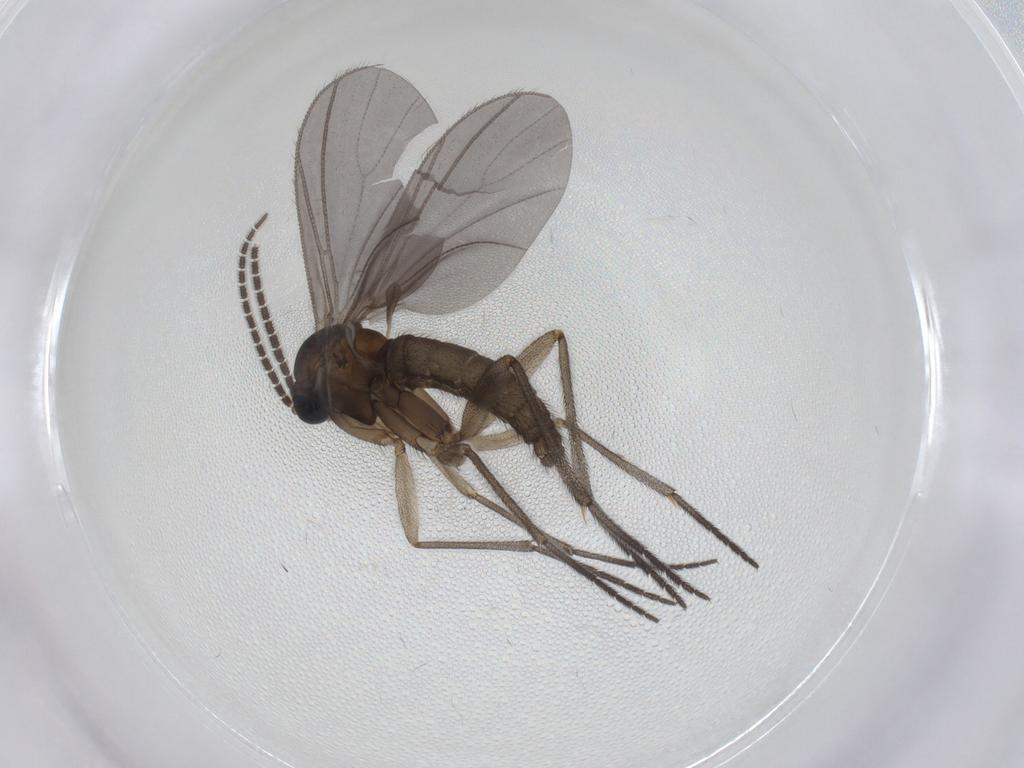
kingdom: Animalia
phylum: Arthropoda
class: Insecta
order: Diptera
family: Sciaridae
